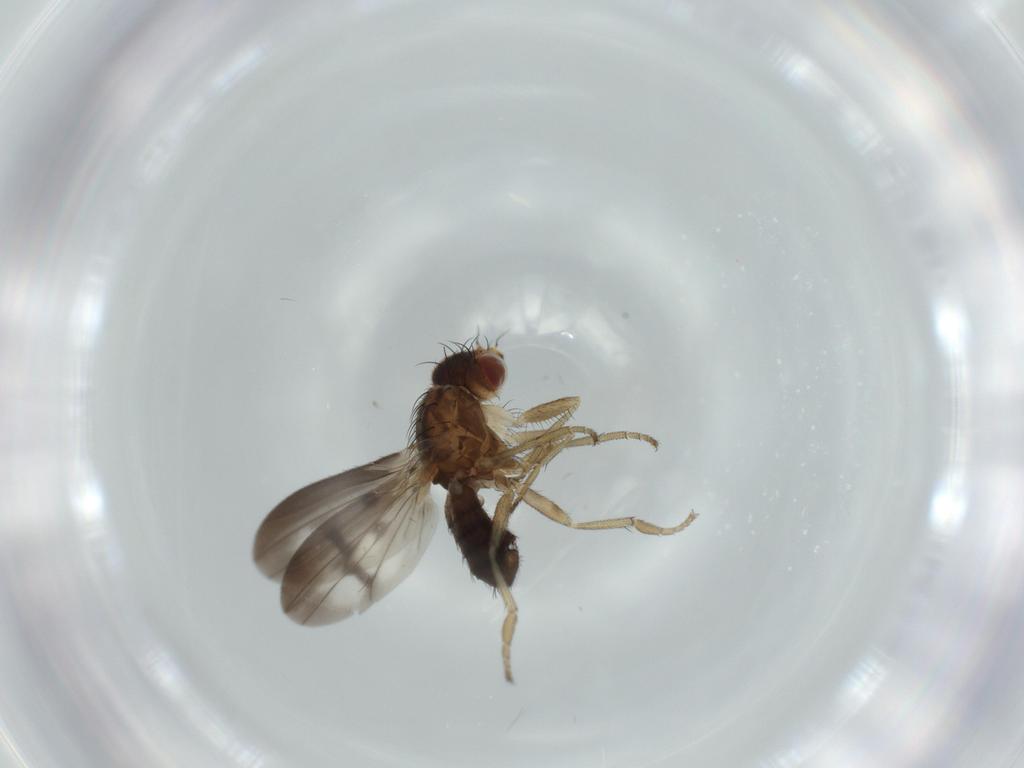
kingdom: Animalia
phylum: Arthropoda
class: Insecta
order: Diptera
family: Heleomyzidae
